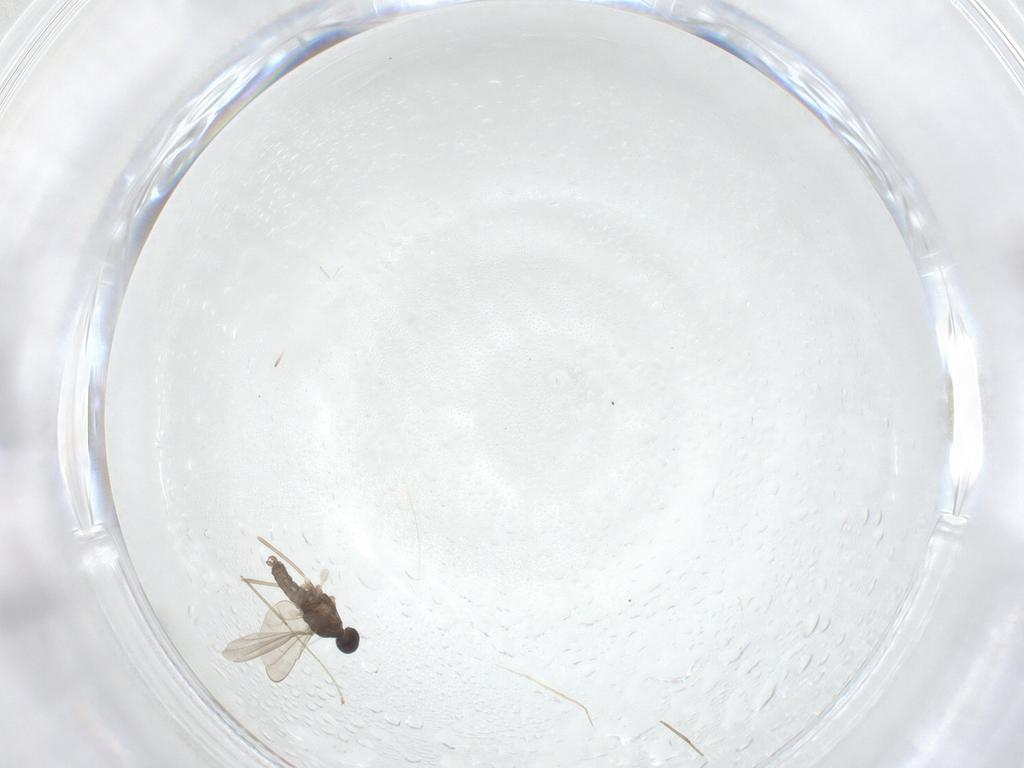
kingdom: Animalia
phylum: Arthropoda
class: Insecta
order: Diptera
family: Cecidomyiidae
